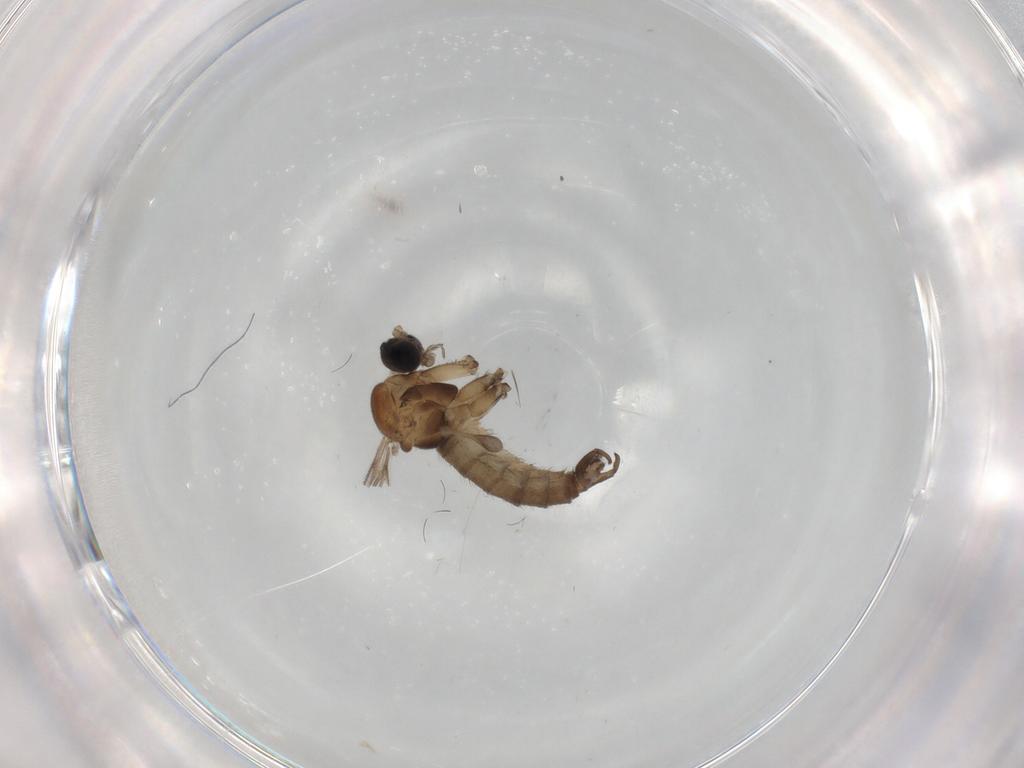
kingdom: Animalia
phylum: Arthropoda
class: Insecta
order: Diptera
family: Sciaridae
